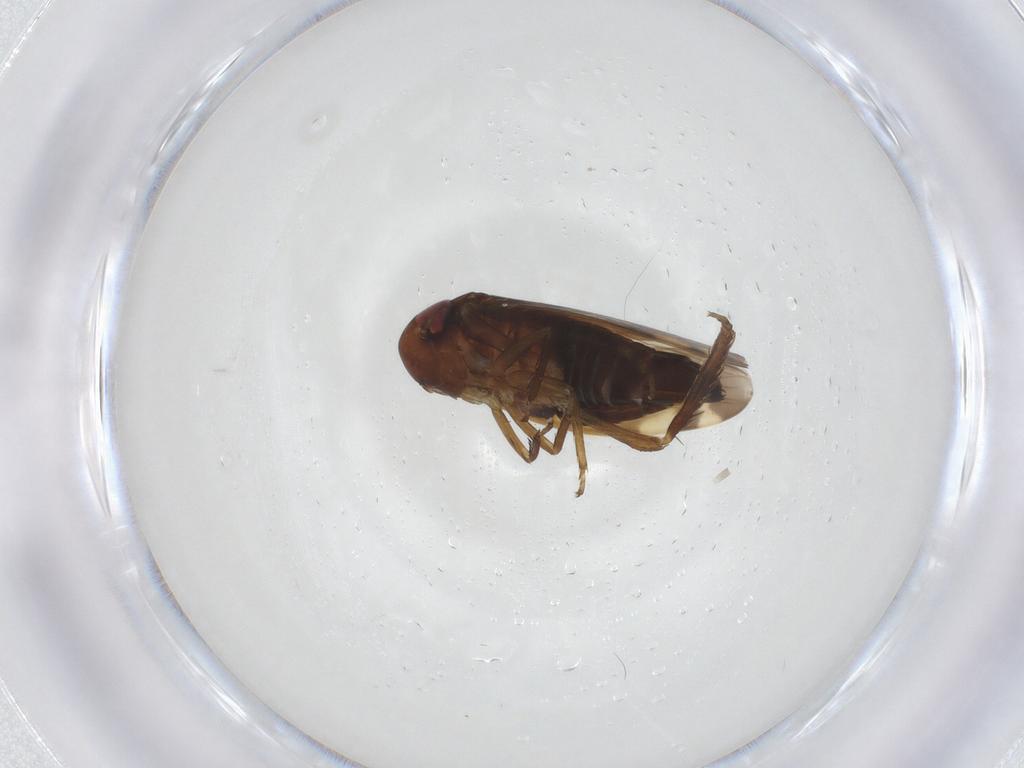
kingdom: Animalia
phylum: Arthropoda
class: Insecta
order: Hemiptera
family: Cicadellidae
